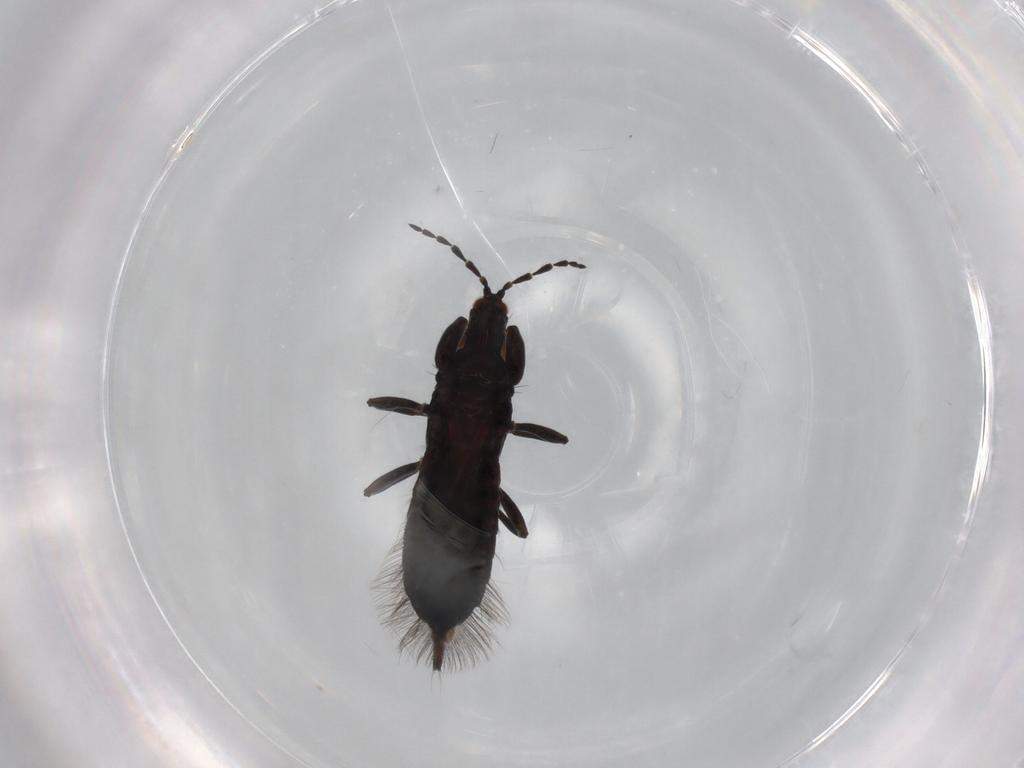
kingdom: Animalia
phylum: Arthropoda
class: Insecta
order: Thysanoptera
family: Phlaeothripidae
